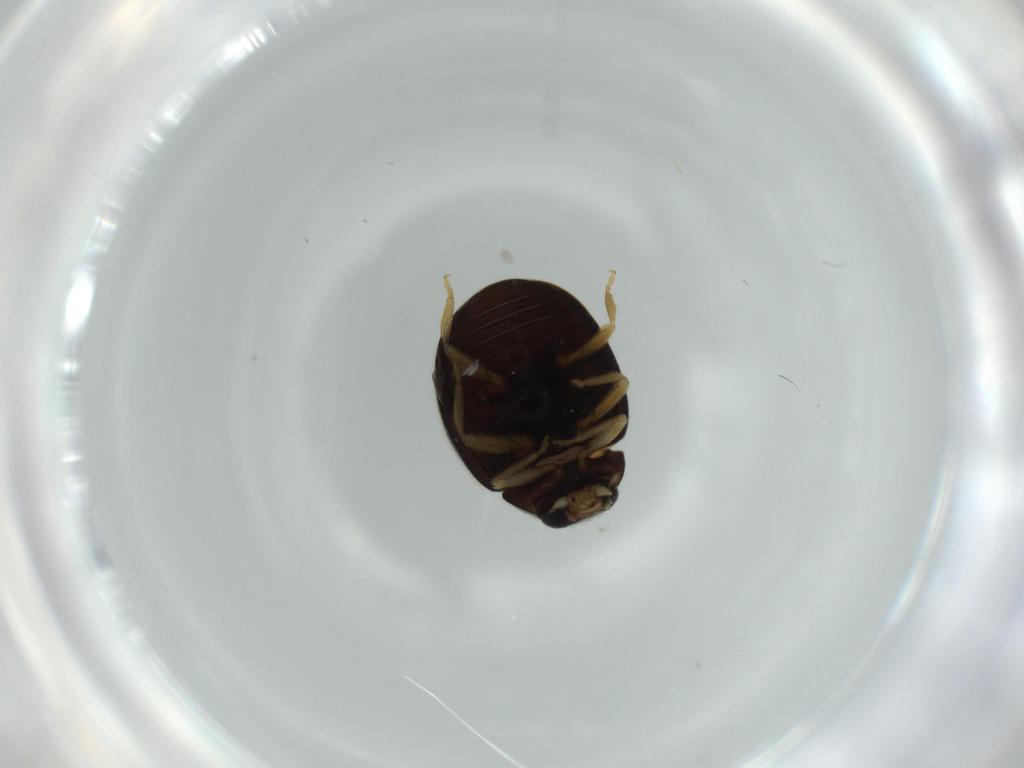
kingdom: Animalia
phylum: Arthropoda
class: Insecta
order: Coleoptera
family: Coccinellidae
